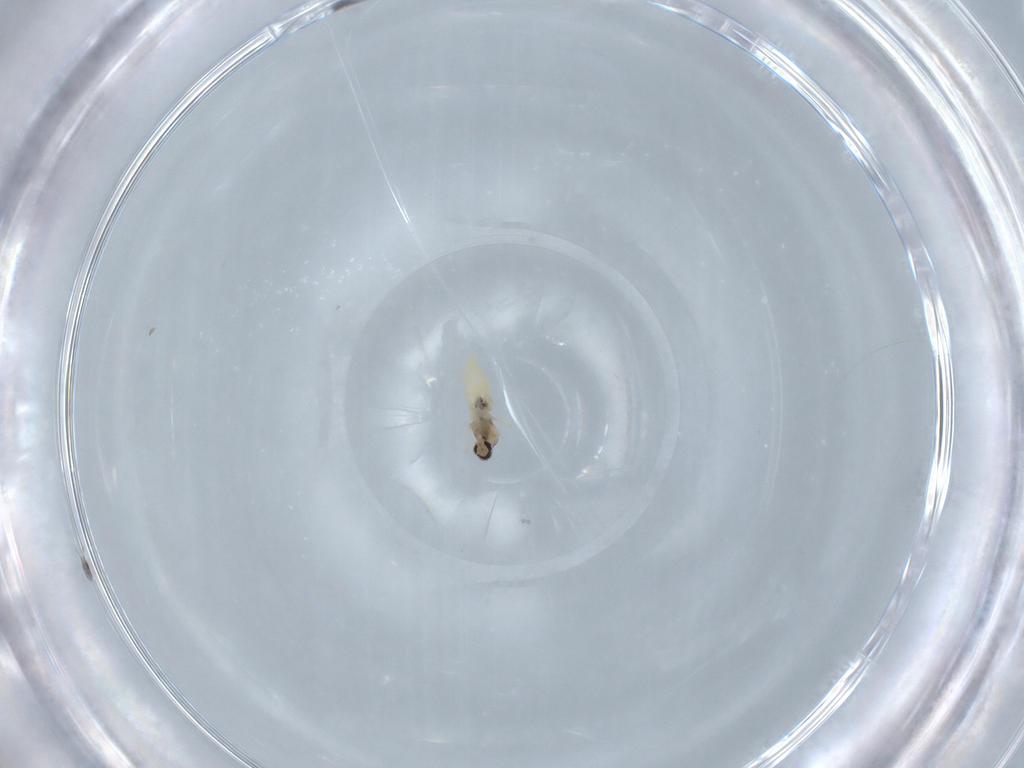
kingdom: Animalia
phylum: Arthropoda
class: Insecta
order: Diptera
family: Cecidomyiidae
